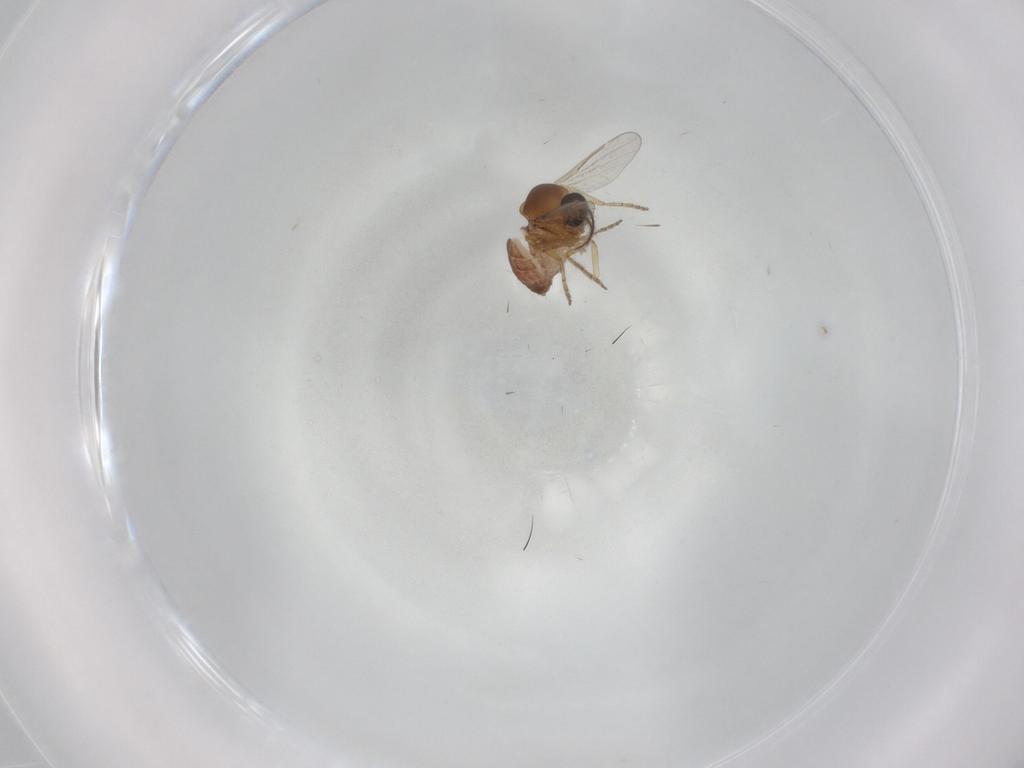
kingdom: Animalia
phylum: Arthropoda
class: Insecta
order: Diptera
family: Ceratopogonidae
